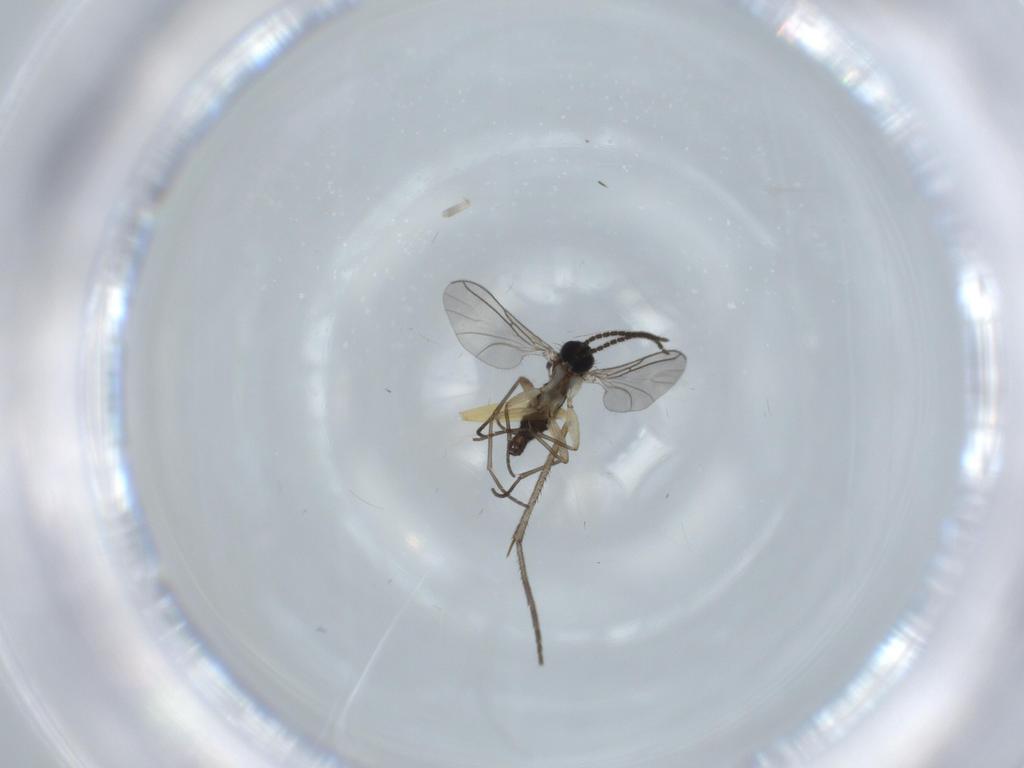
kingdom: Animalia
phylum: Arthropoda
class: Insecta
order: Diptera
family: Sciaridae
